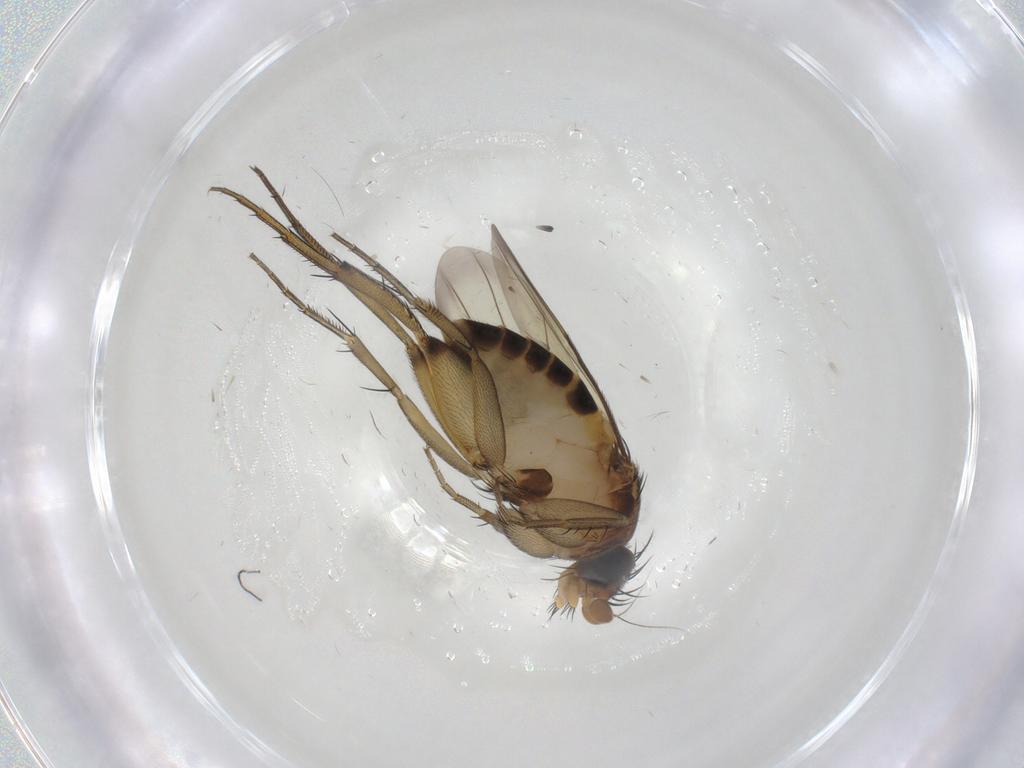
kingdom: Animalia
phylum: Arthropoda
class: Insecta
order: Diptera
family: Phoridae
